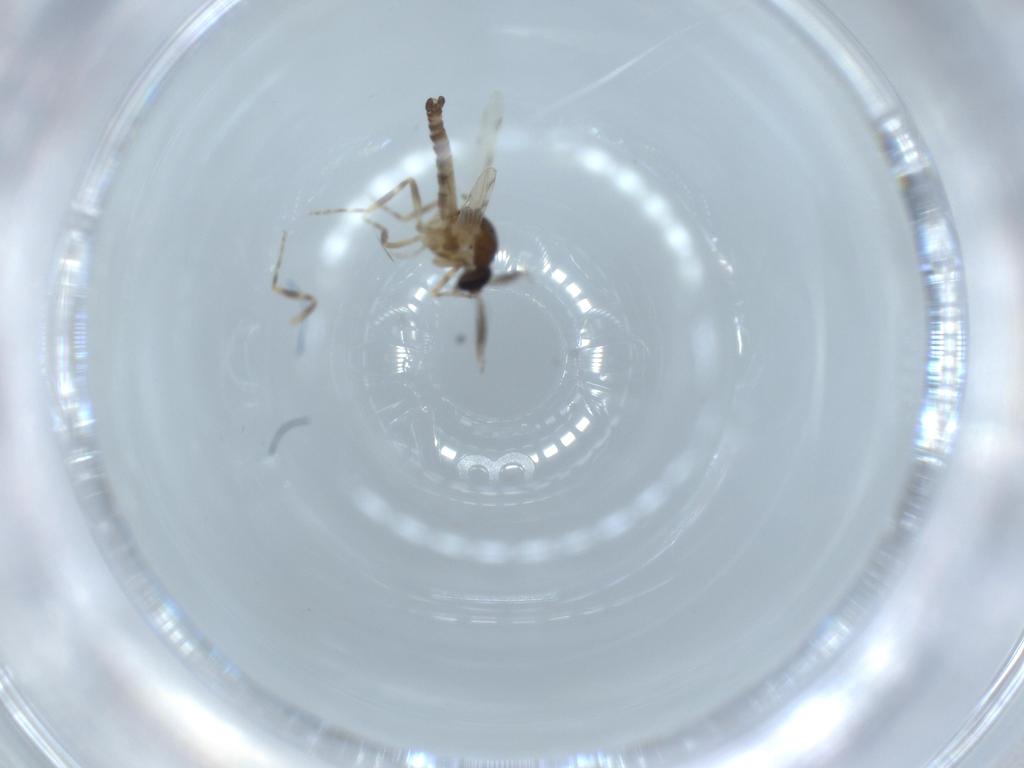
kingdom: Animalia
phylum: Arthropoda
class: Insecta
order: Diptera
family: Ceratopogonidae
